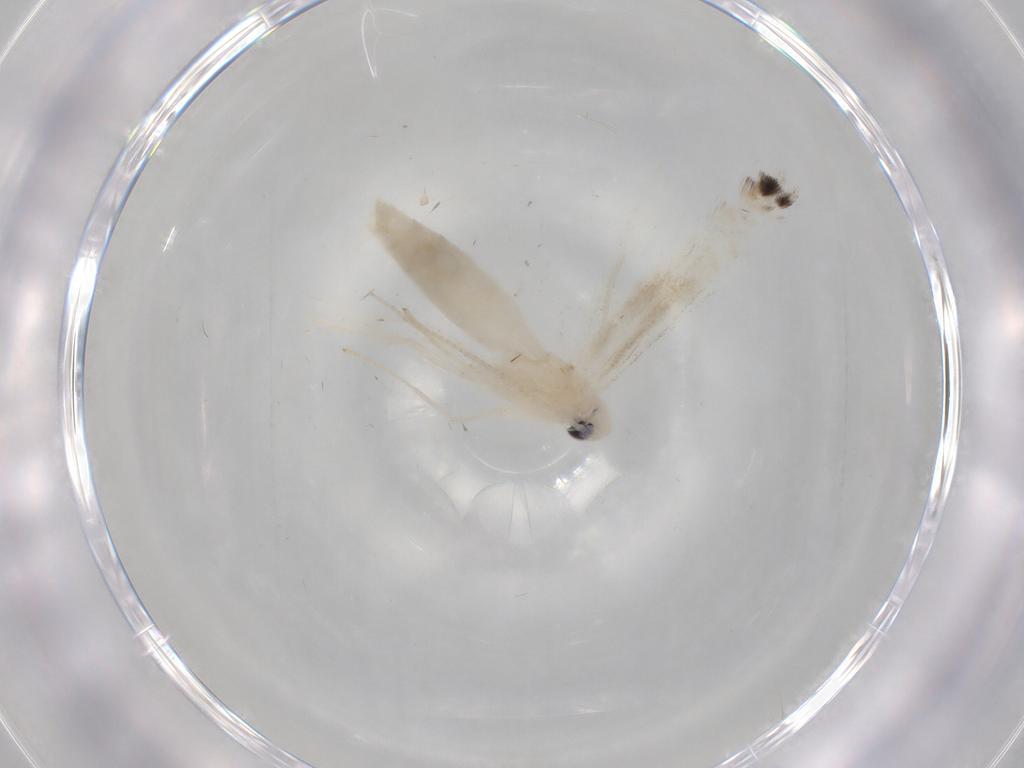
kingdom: Animalia
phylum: Arthropoda
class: Insecta
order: Lepidoptera
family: Gracillariidae
